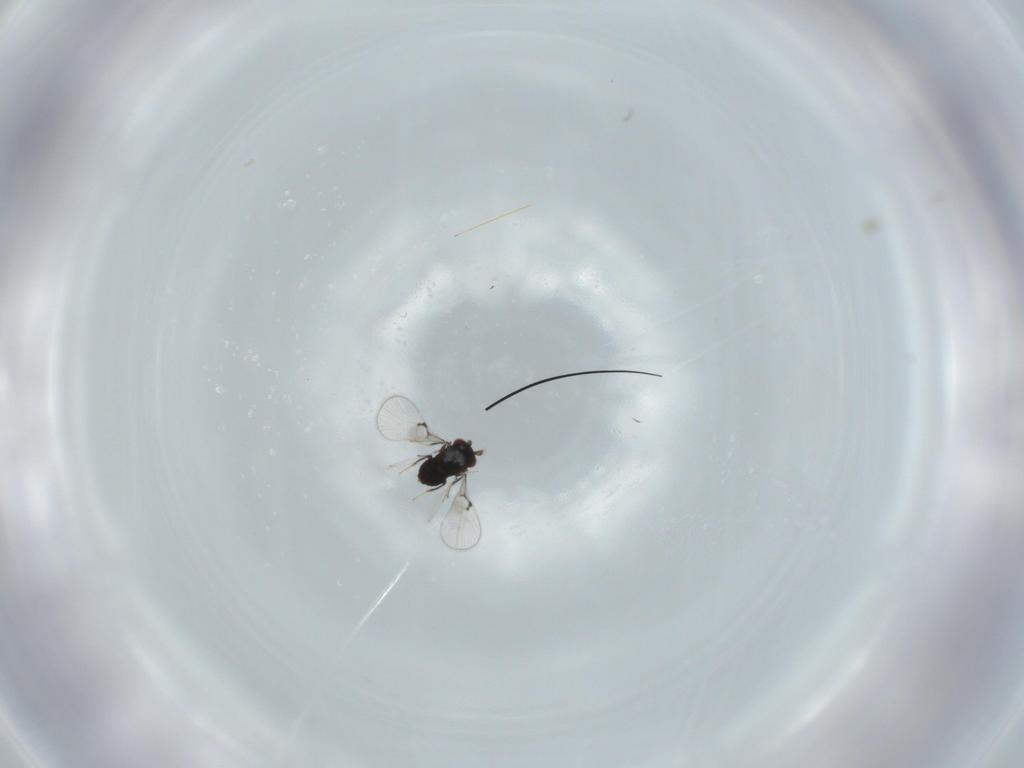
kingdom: Animalia
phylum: Arthropoda
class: Insecta
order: Hymenoptera
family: Trichogrammatidae
